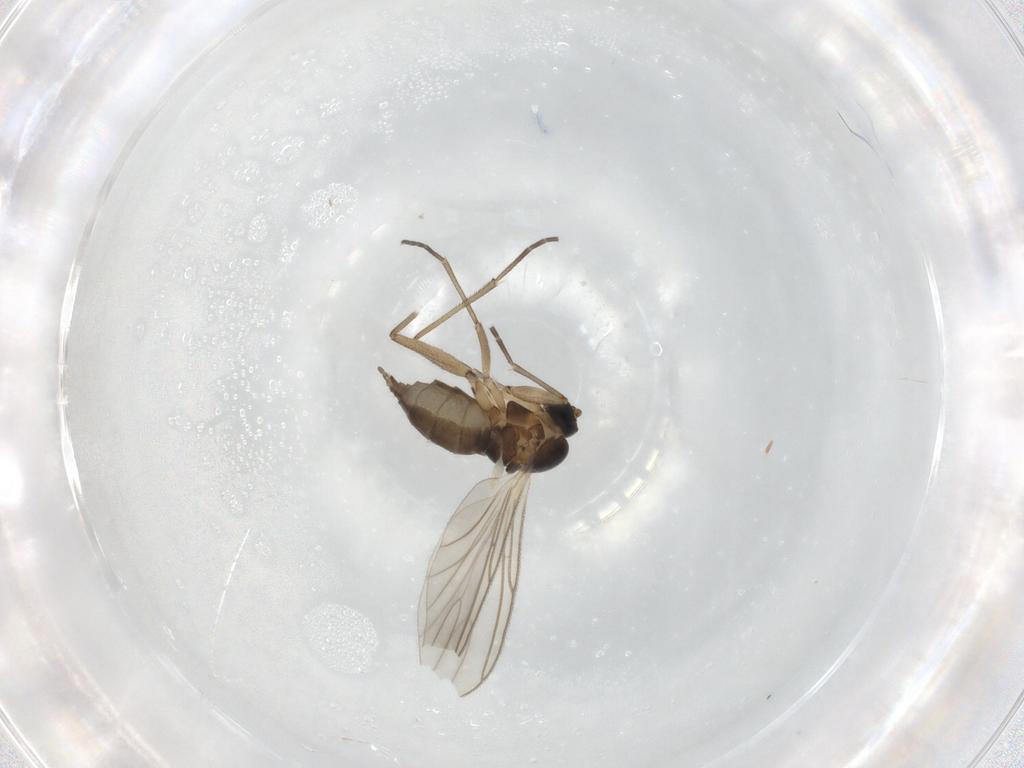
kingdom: Animalia
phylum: Arthropoda
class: Insecta
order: Diptera
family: Cecidomyiidae
